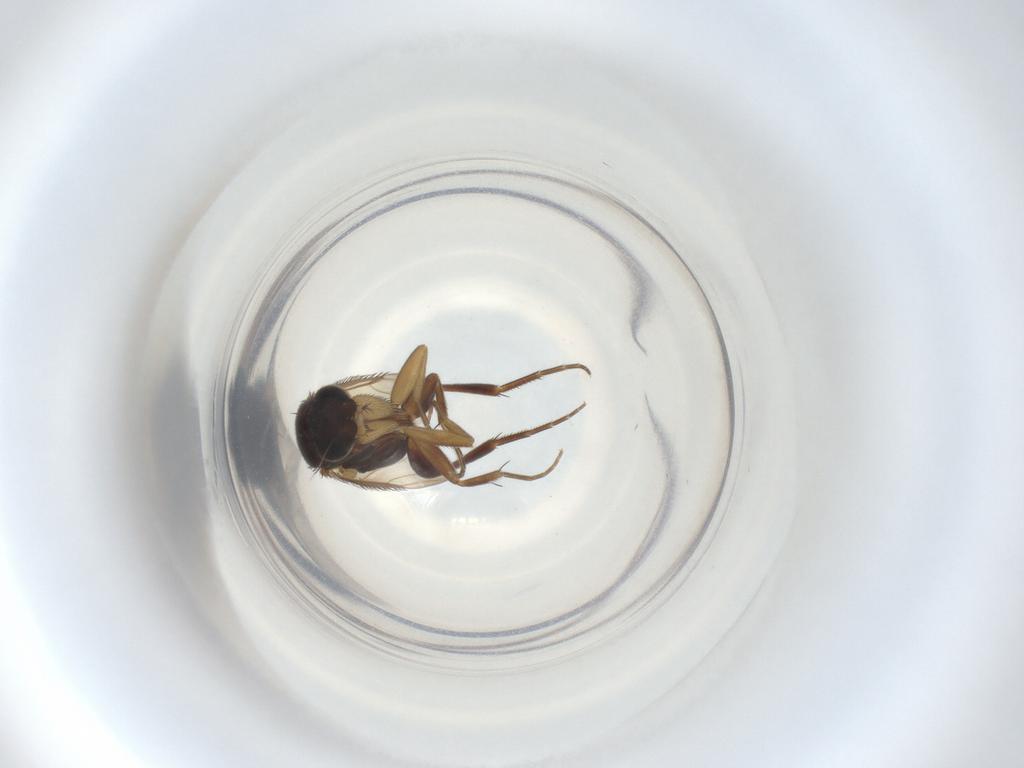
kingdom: Animalia
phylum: Arthropoda
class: Insecta
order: Diptera
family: Phoridae
